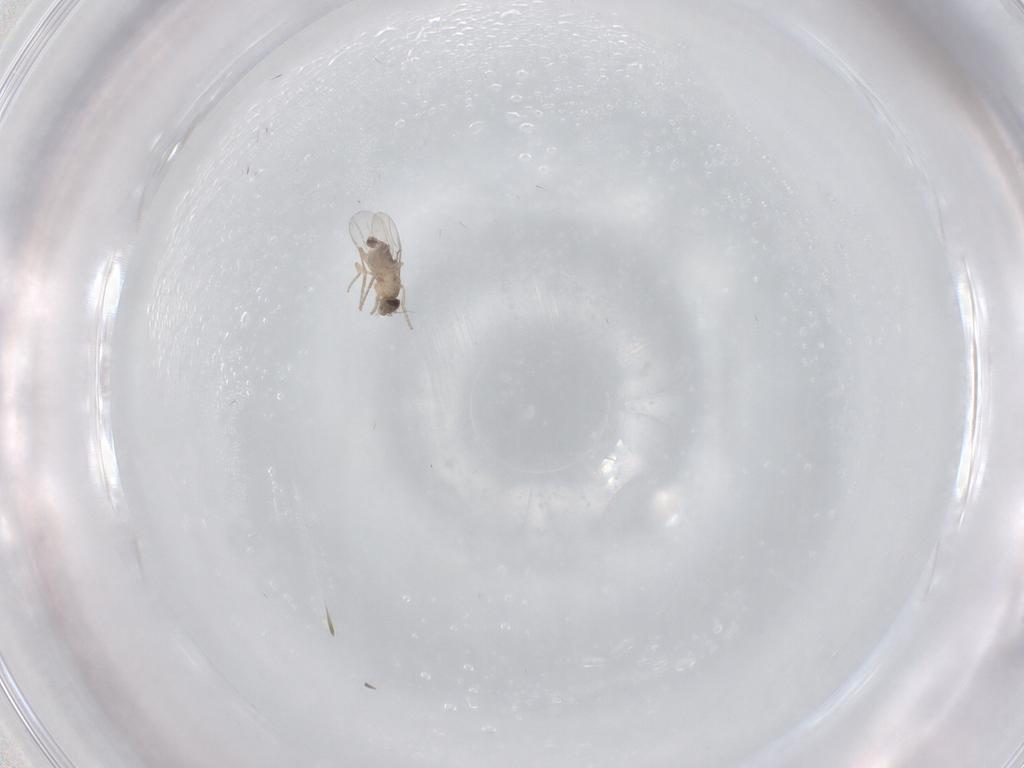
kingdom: Animalia
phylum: Arthropoda
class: Insecta
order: Diptera
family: Phoridae
